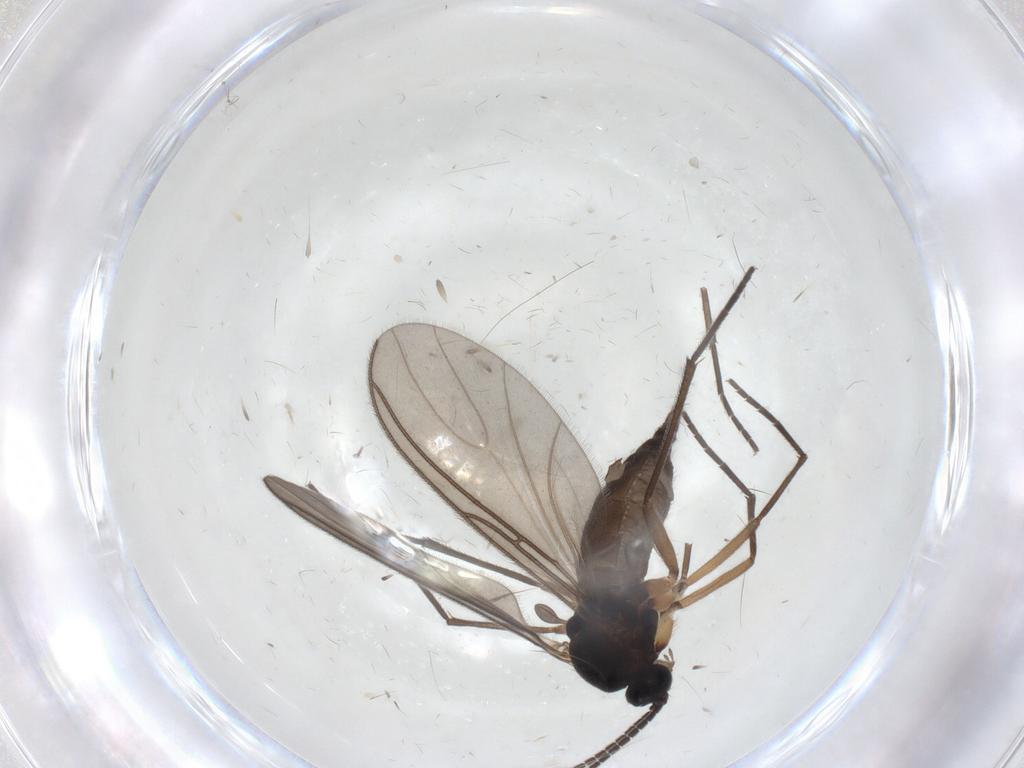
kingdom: Animalia
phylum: Arthropoda
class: Insecta
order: Diptera
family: Sciaridae
